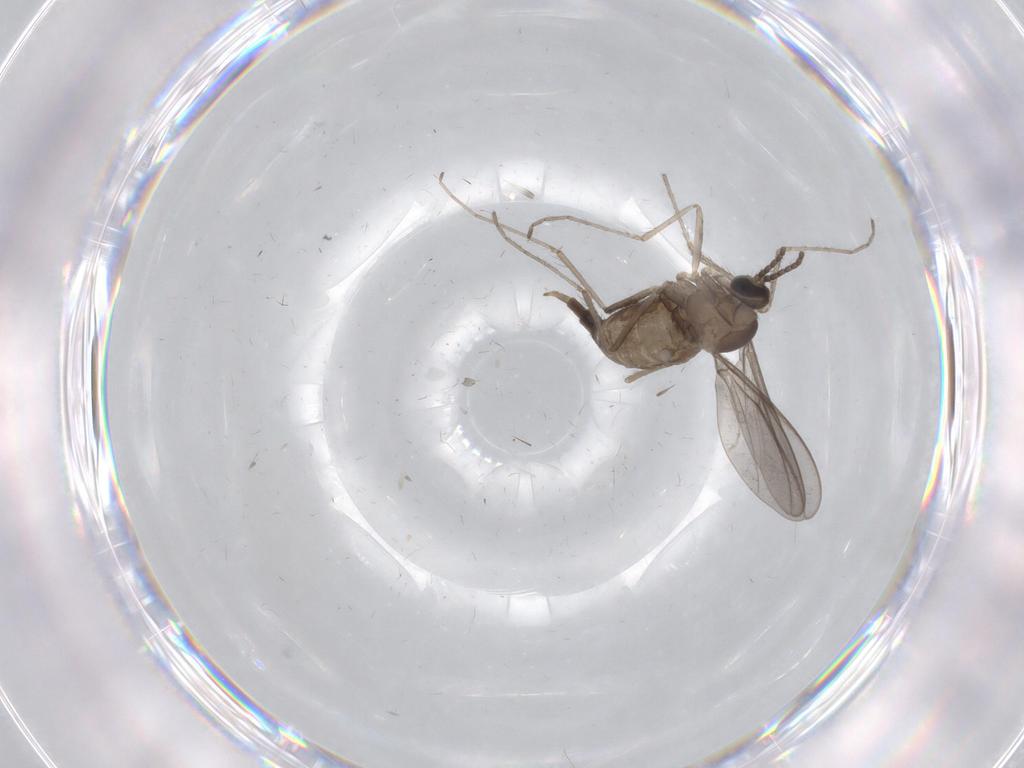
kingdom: Animalia
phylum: Arthropoda
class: Insecta
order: Diptera
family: Cecidomyiidae
